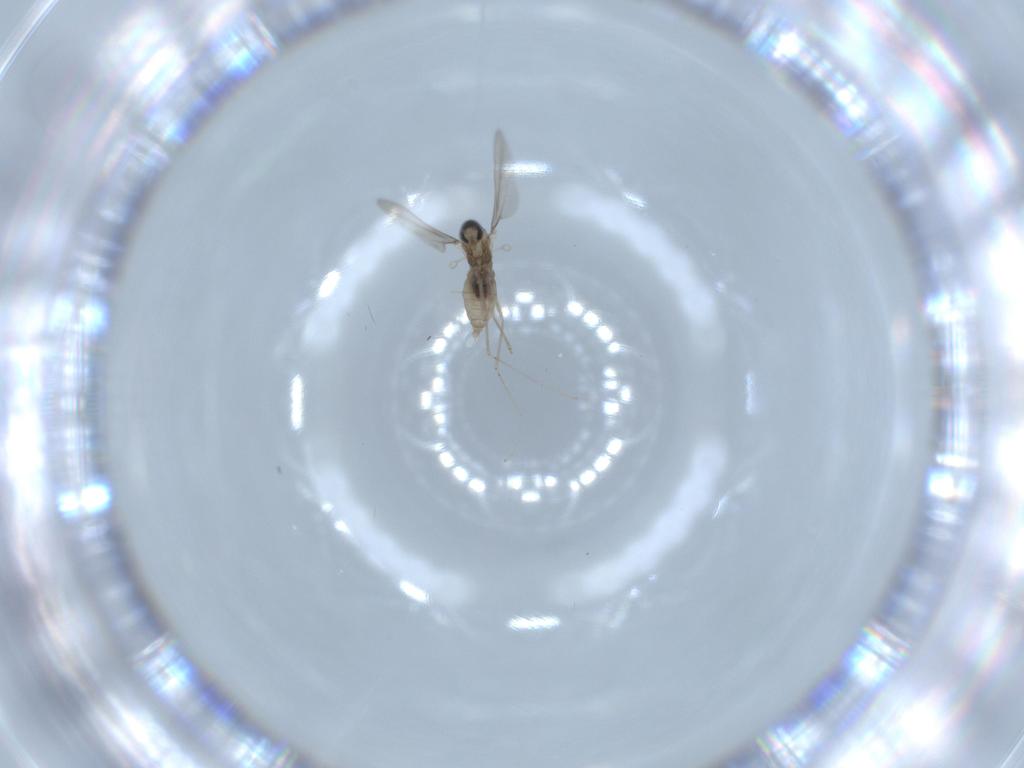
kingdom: Animalia
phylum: Arthropoda
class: Insecta
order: Diptera
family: Cecidomyiidae
